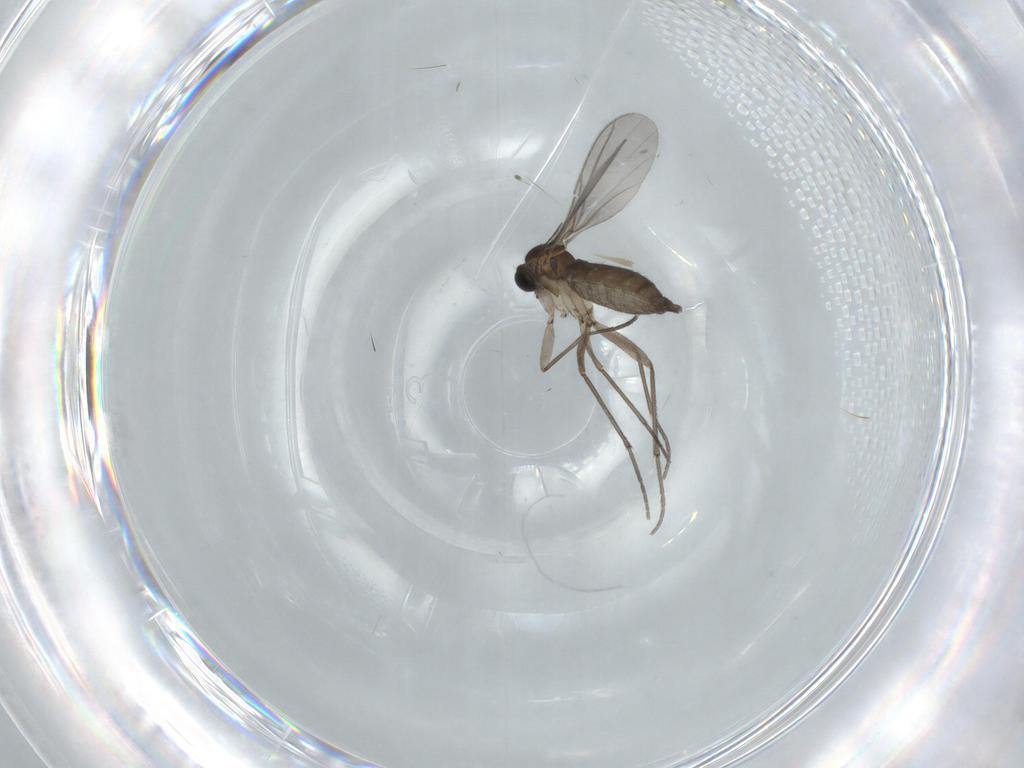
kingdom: Animalia
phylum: Arthropoda
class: Insecta
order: Diptera
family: Sciaridae
